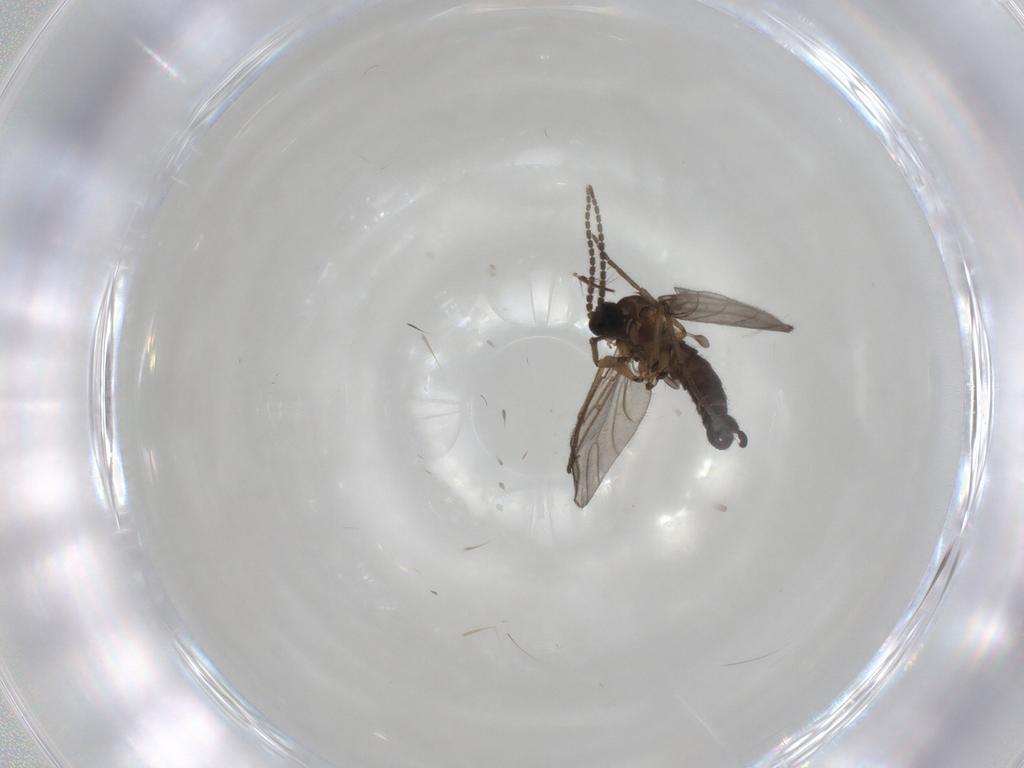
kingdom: Animalia
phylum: Arthropoda
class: Insecta
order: Diptera
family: Sciaridae
